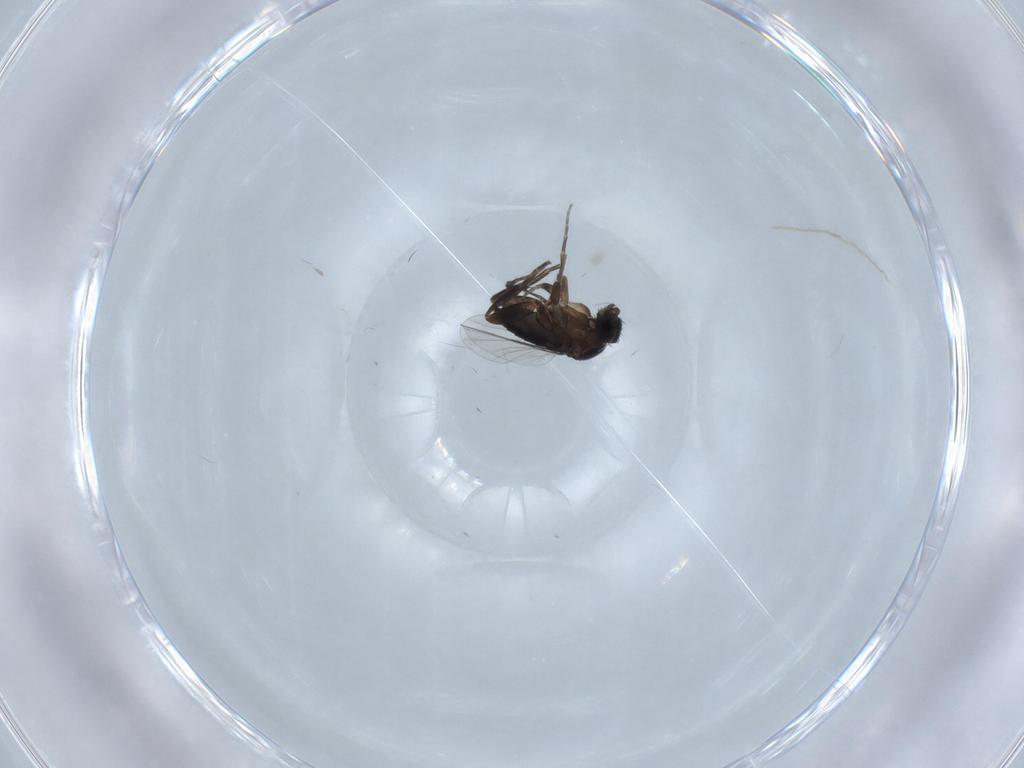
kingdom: Animalia
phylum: Arthropoda
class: Insecta
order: Diptera
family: Phoridae
